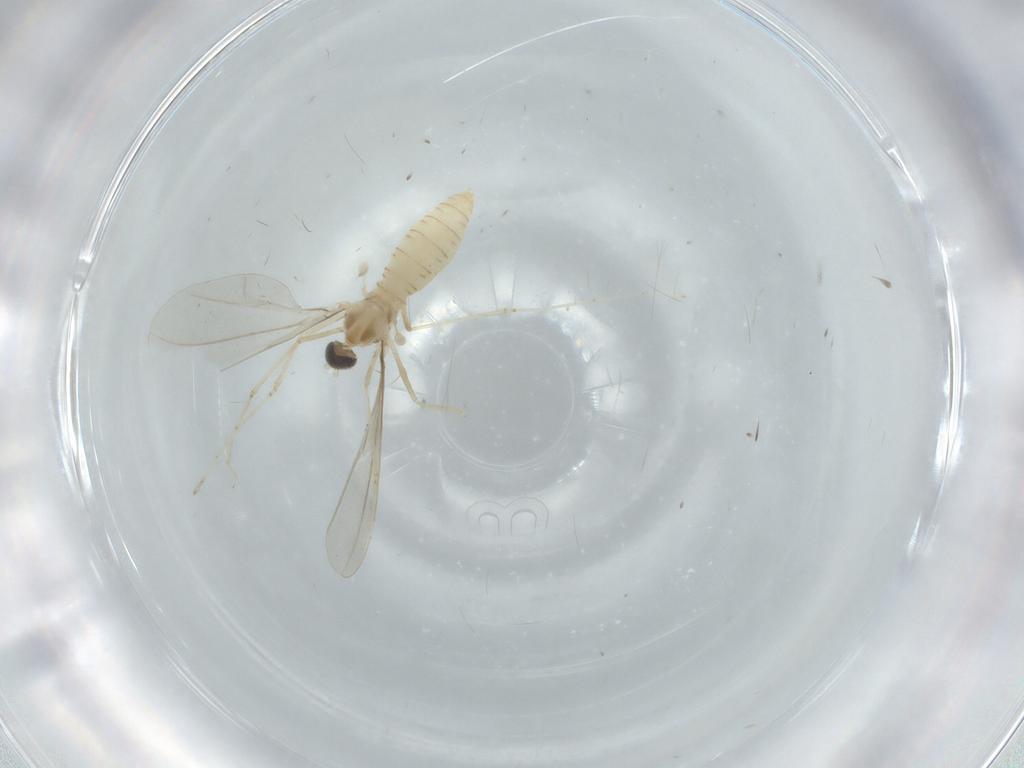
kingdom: Animalia
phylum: Arthropoda
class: Insecta
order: Diptera
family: Cecidomyiidae
